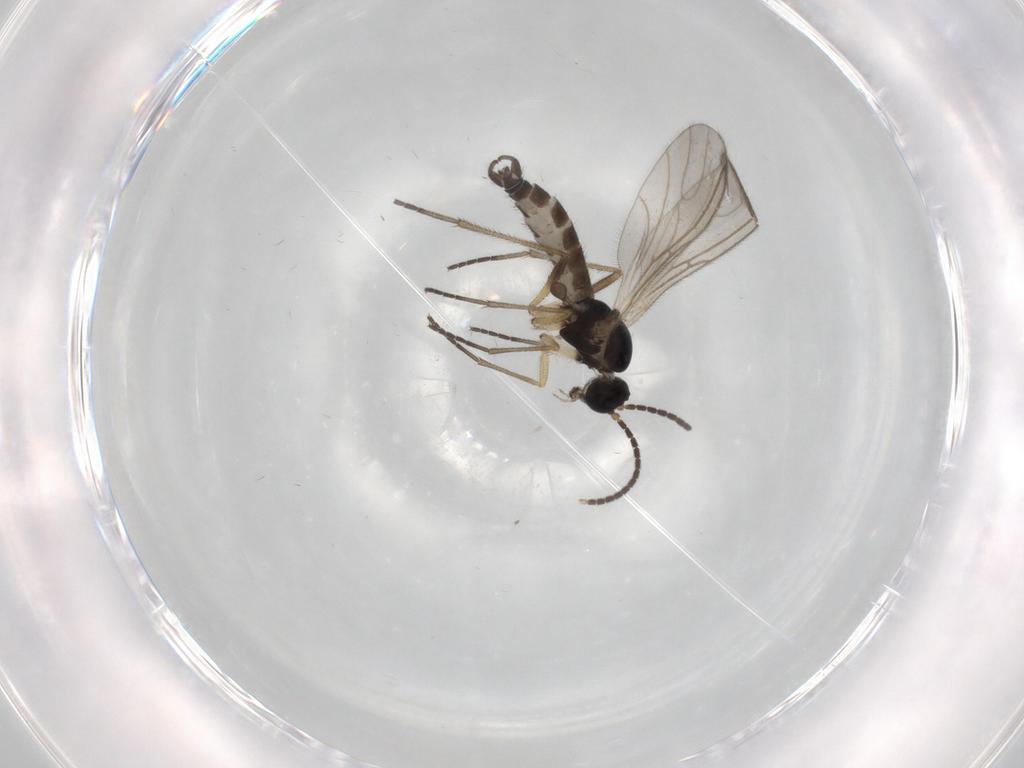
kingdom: Animalia
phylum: Arthropoda
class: Insecta
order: Diptera
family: Sciaridae
